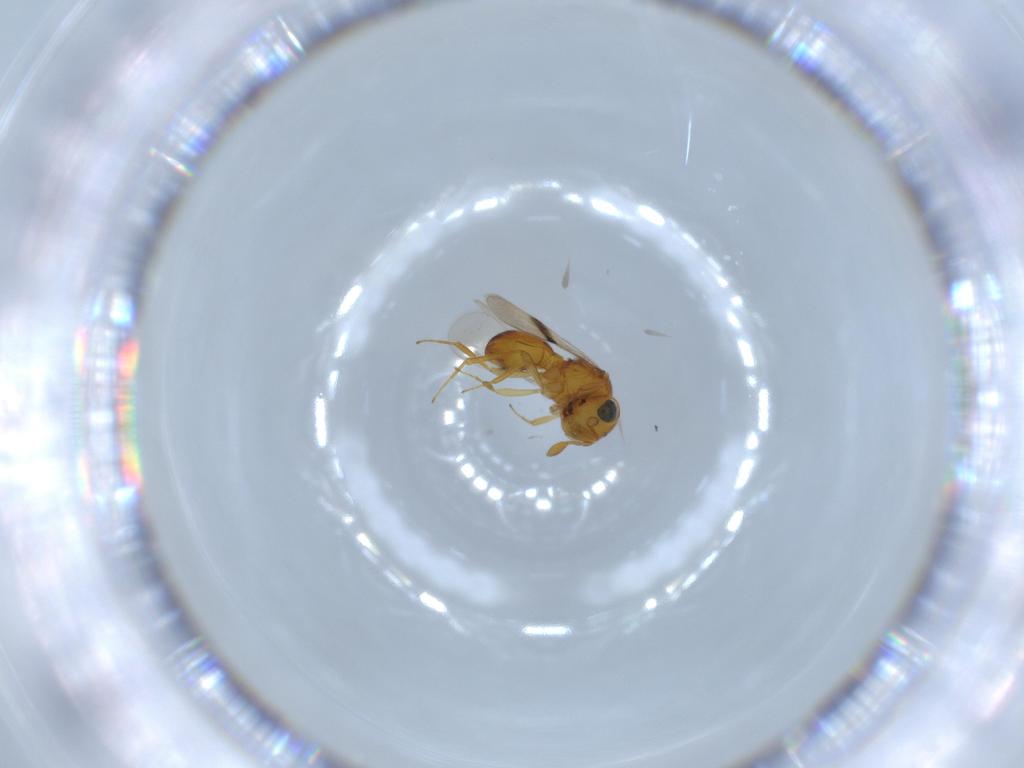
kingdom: Animalia
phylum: Arthropoda
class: Insecta
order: Hymenoptera
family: Scelionidae
